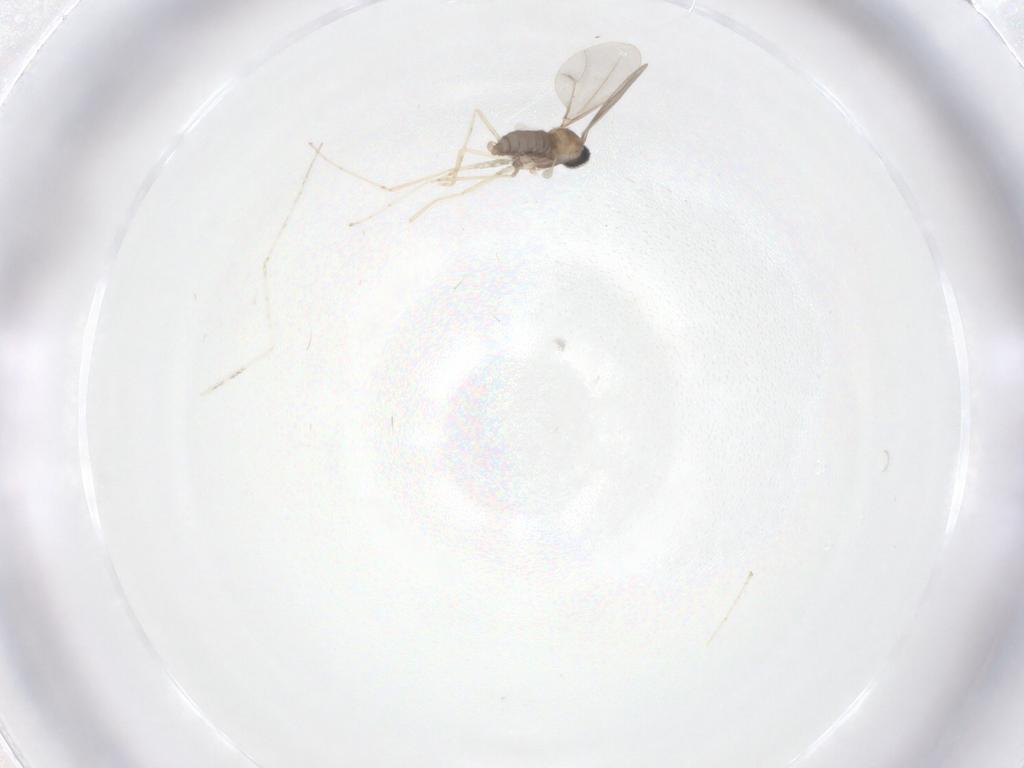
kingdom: Animalia
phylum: Arthropoda
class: Insecta
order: Diptera
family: Cecidomyiidae
